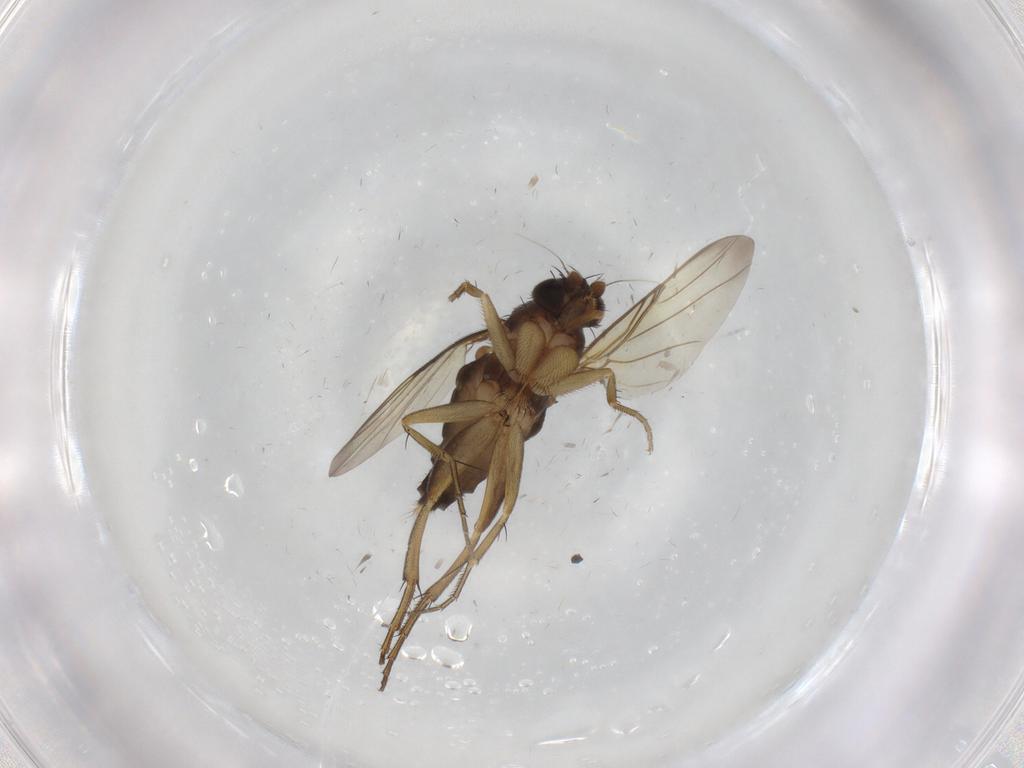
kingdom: Animalia
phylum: Arthropoda
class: Insecta
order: Diptera
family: Phoridae
